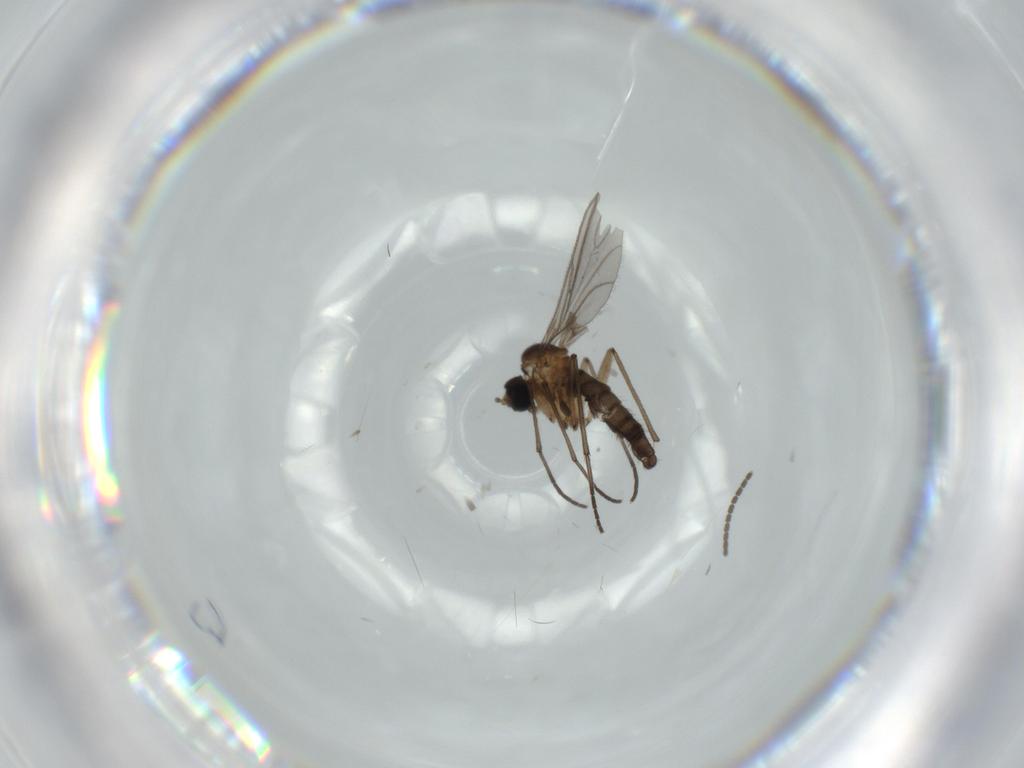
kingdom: Animalia
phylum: Arthropoda
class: Insecta
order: Diptera
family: Sciaridae
